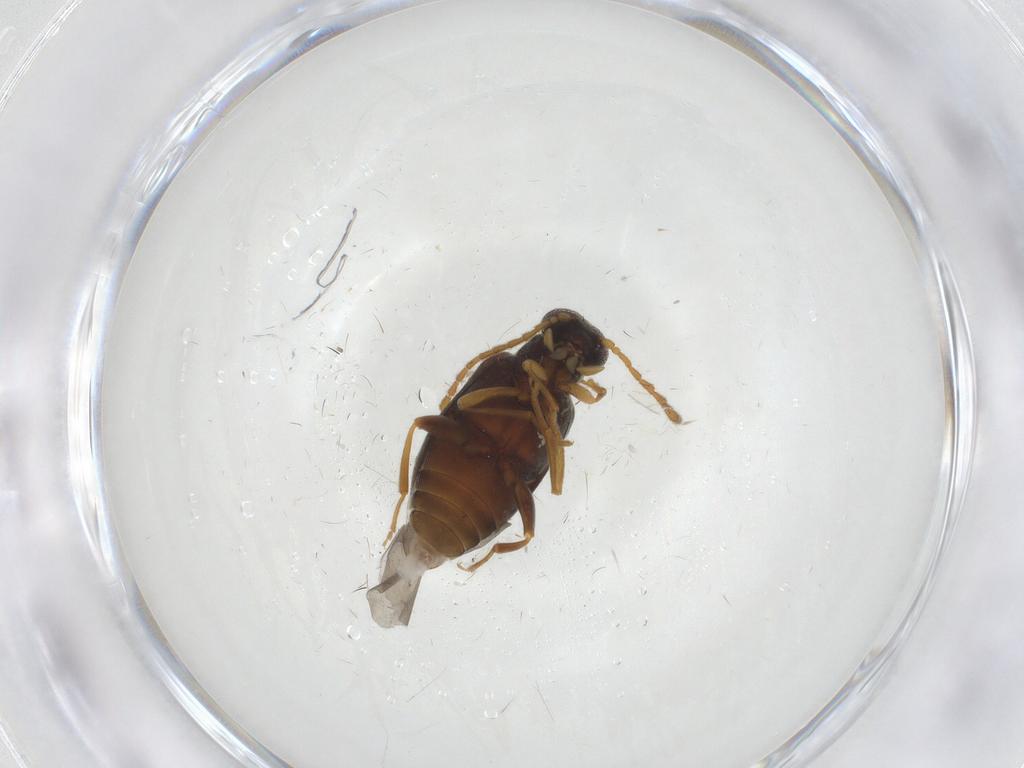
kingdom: Animalia
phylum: Arthropoda
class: Insecta
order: Coleoptera
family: Aderidae
